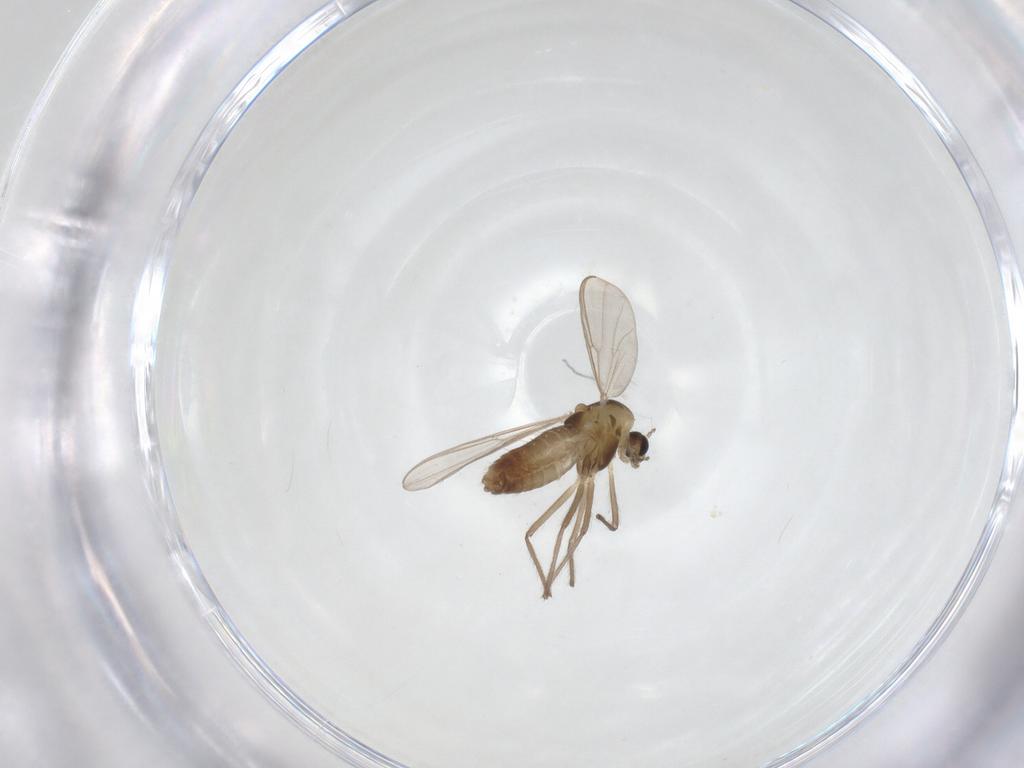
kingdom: Animalia
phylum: Arthropoda
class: Insecta
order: Diptera
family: Chironomidae
